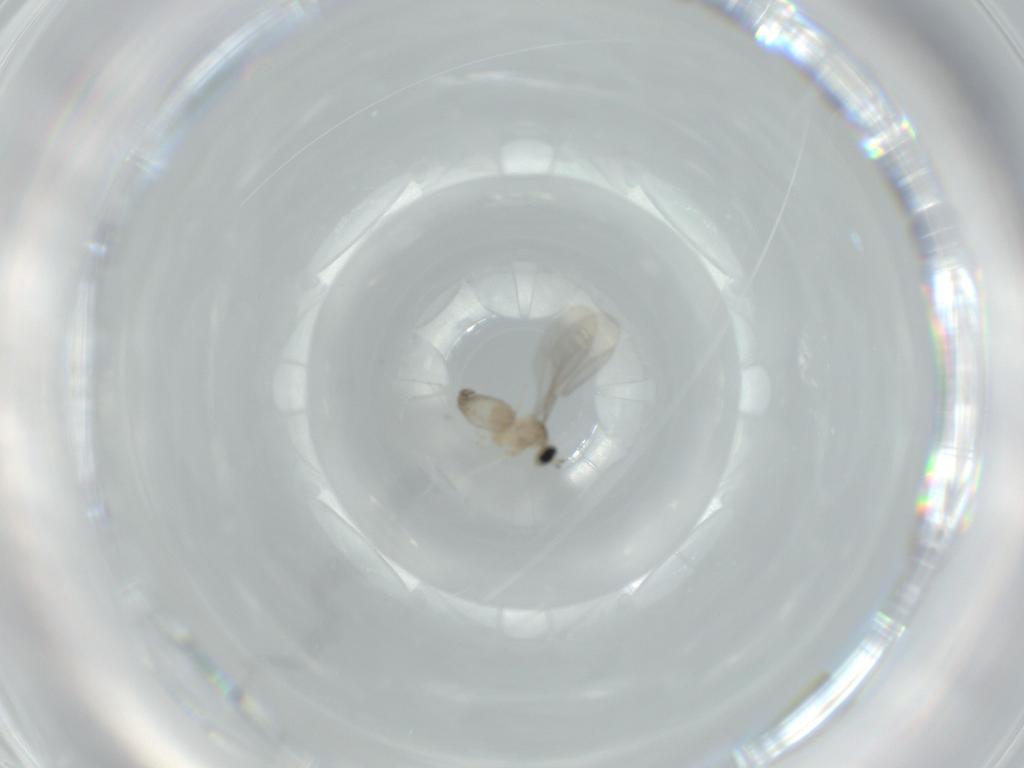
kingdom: Animalia
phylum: Arthropoda
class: Insecta
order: Diptera
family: Cecidomyiidae
